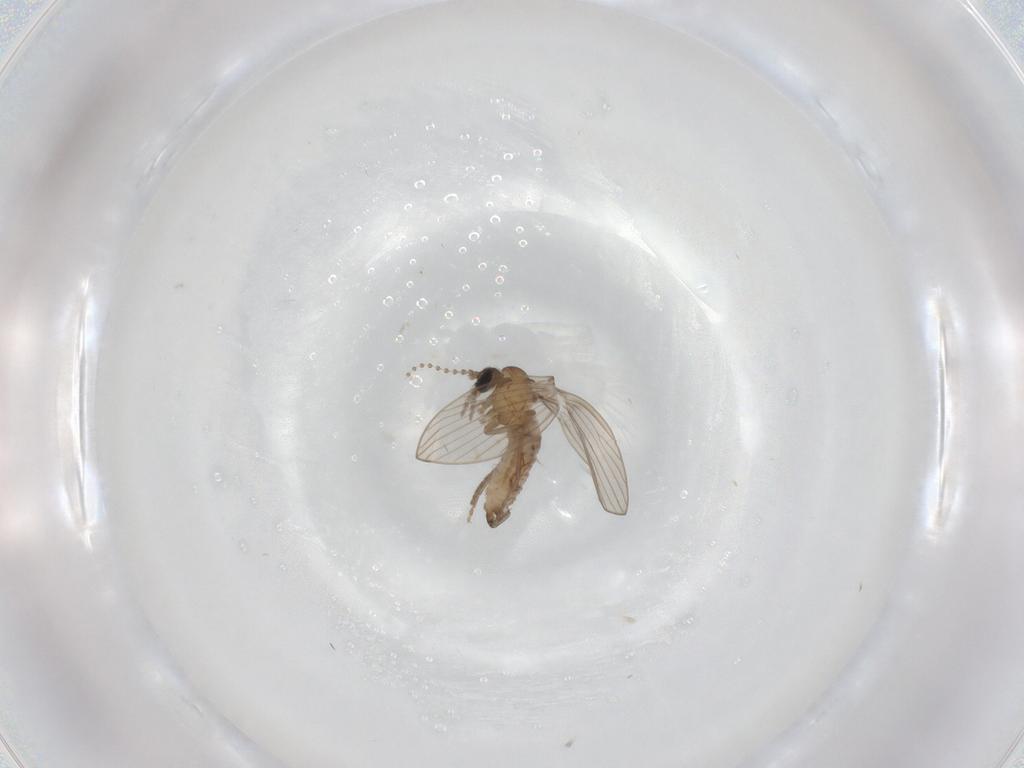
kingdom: Animalia
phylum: Arthropoda
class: Insecta
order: Diptera
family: Psychodidae
